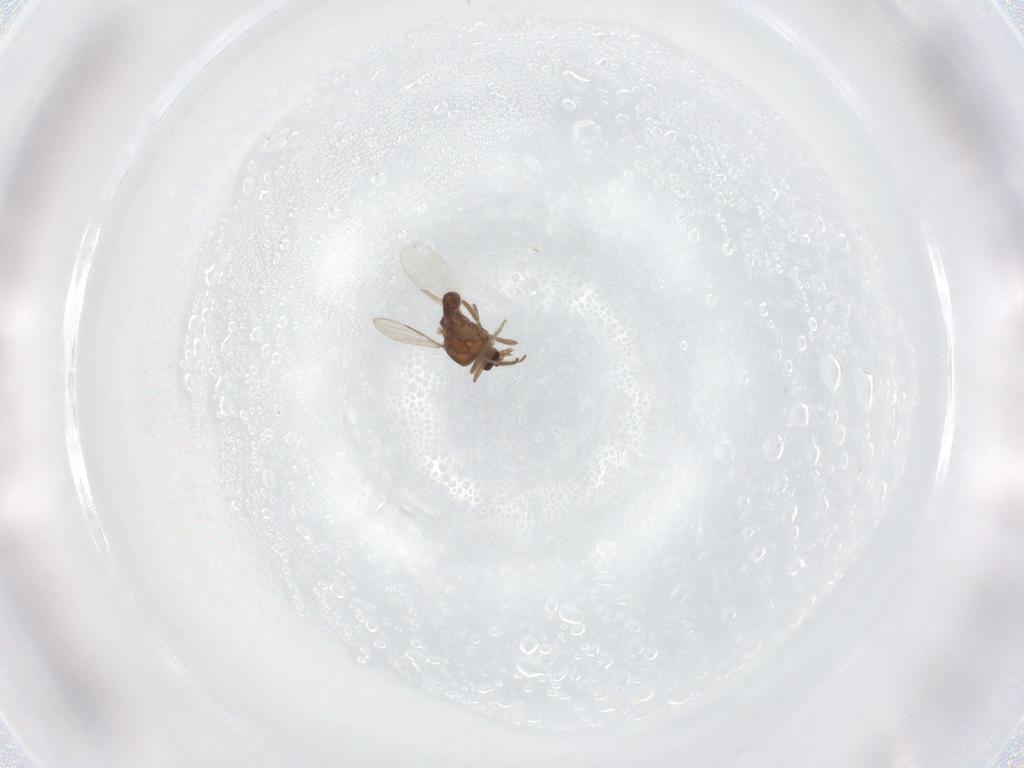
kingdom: Animalia
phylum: Arthropoda
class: Insecta
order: Diptera
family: Ceratopogonidae
